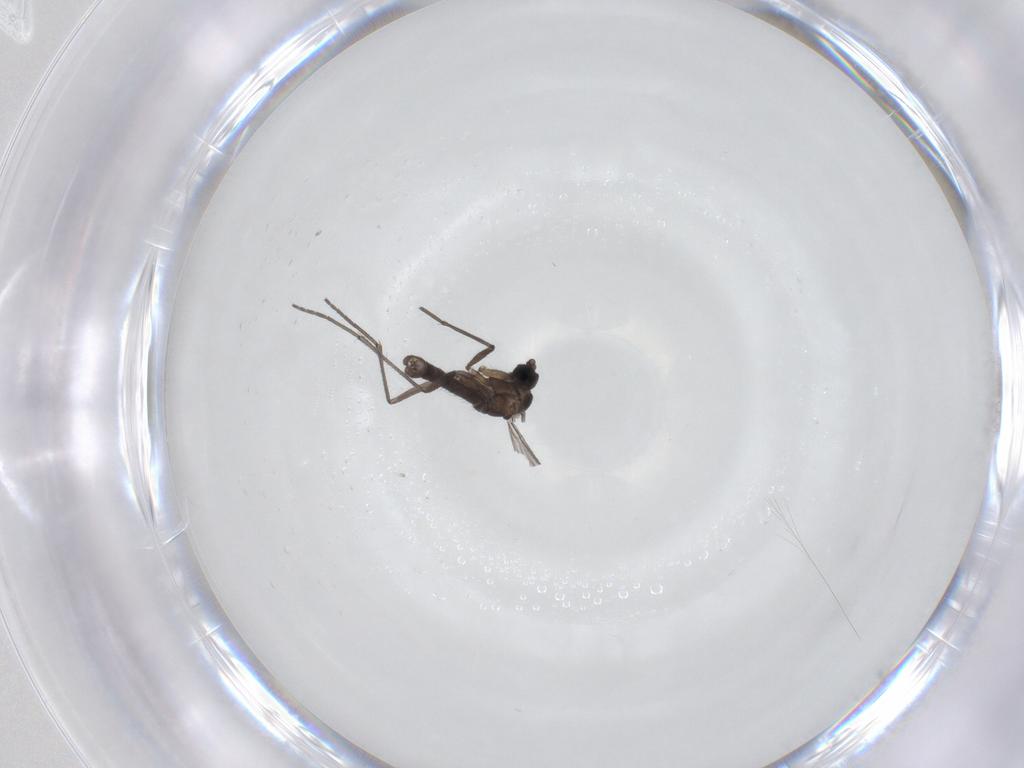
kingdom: Animalia
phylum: Arthropoda
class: Insecta
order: Diptera
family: Sciaridae
